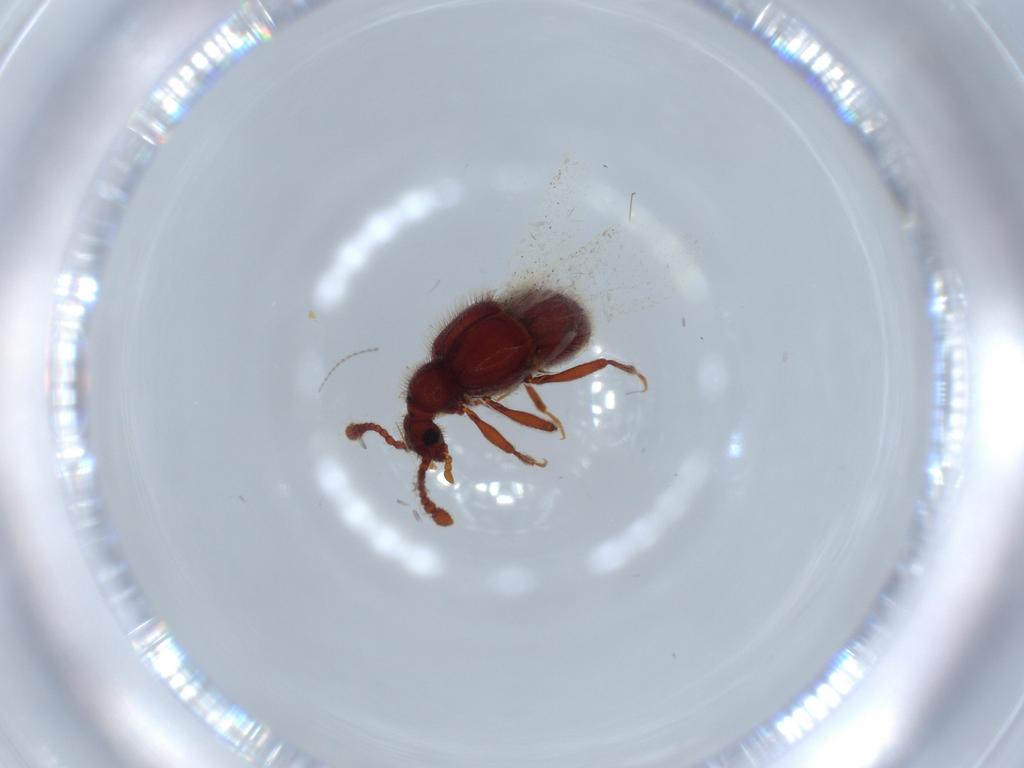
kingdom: Animalia
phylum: Arthropoda
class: Insecta
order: Coleoptera
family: Staphylinidae
